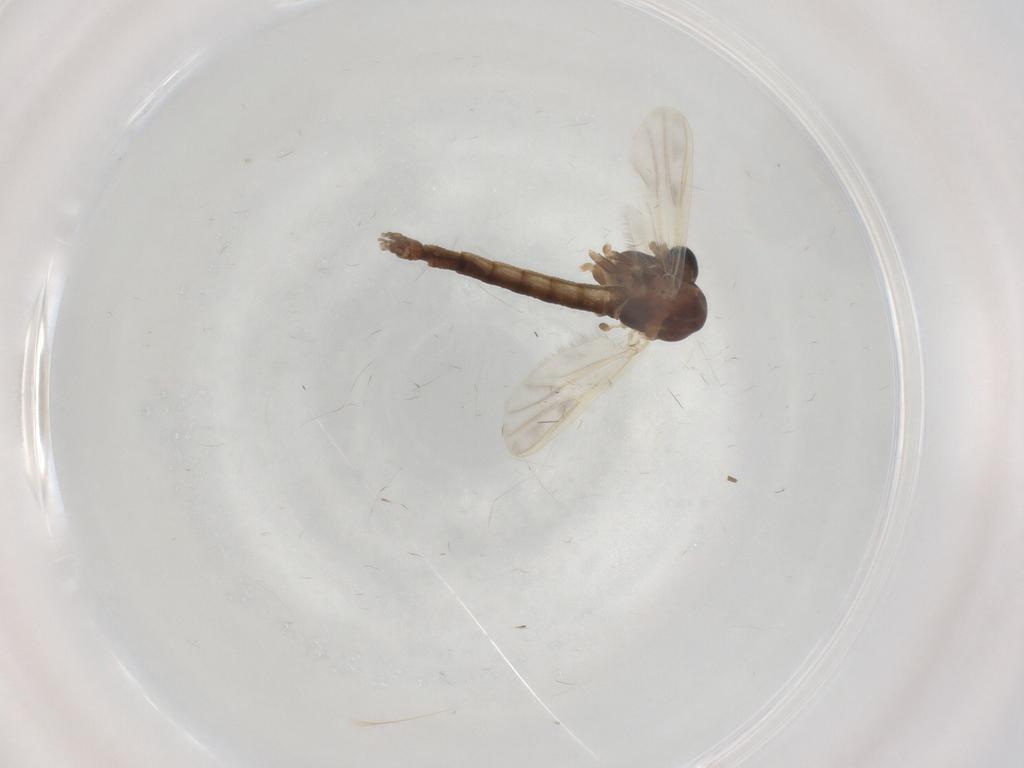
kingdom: Animalia
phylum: Arthropoda
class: Insecta
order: Diptera
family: Chironomidae
